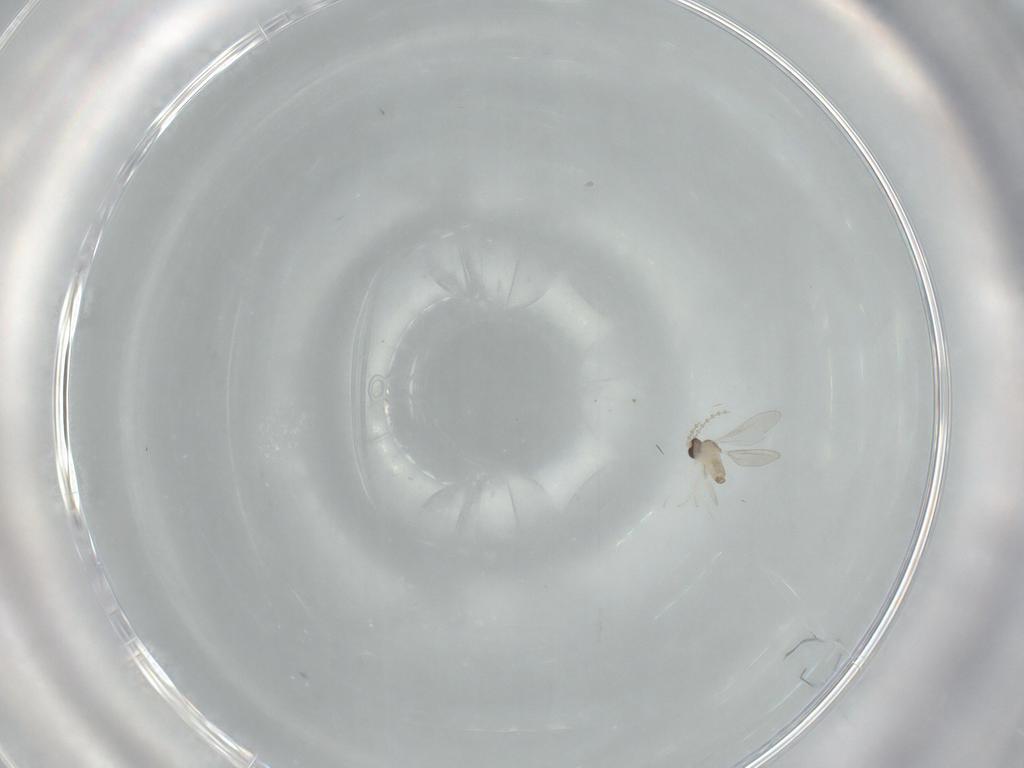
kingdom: Animalia
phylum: Arthropoda
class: Insecta
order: Diptera
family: Cecidomyiidae
